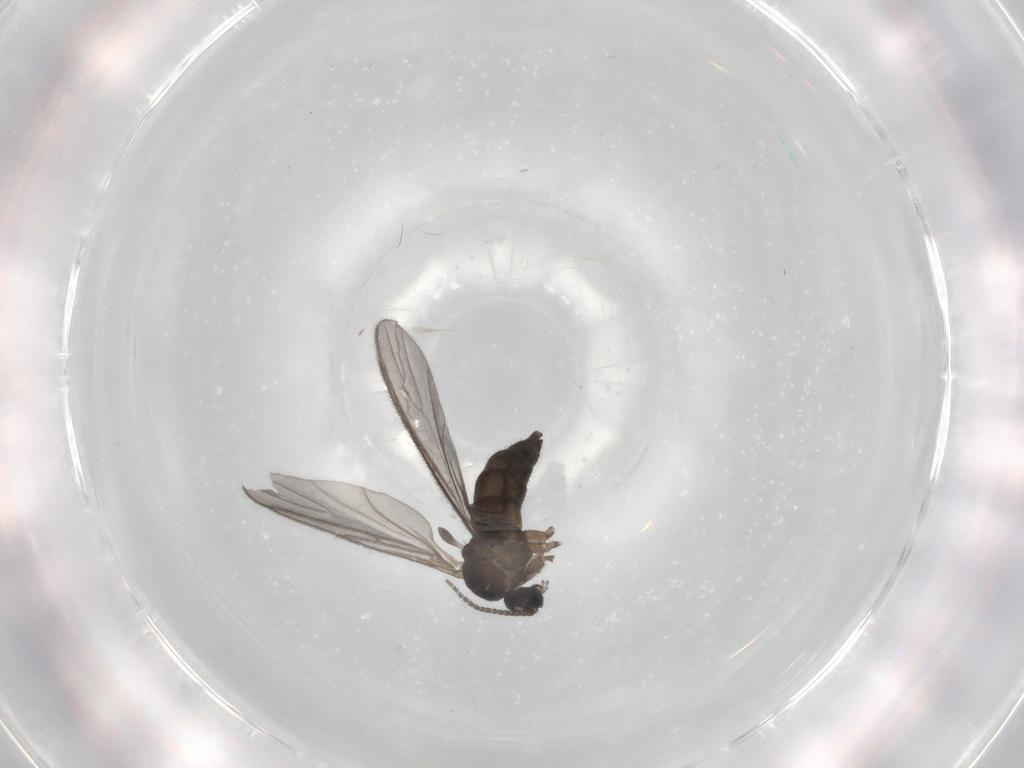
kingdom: Animalia
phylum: Arthropoda
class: Insecta
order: Diptera
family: Sciaridae
